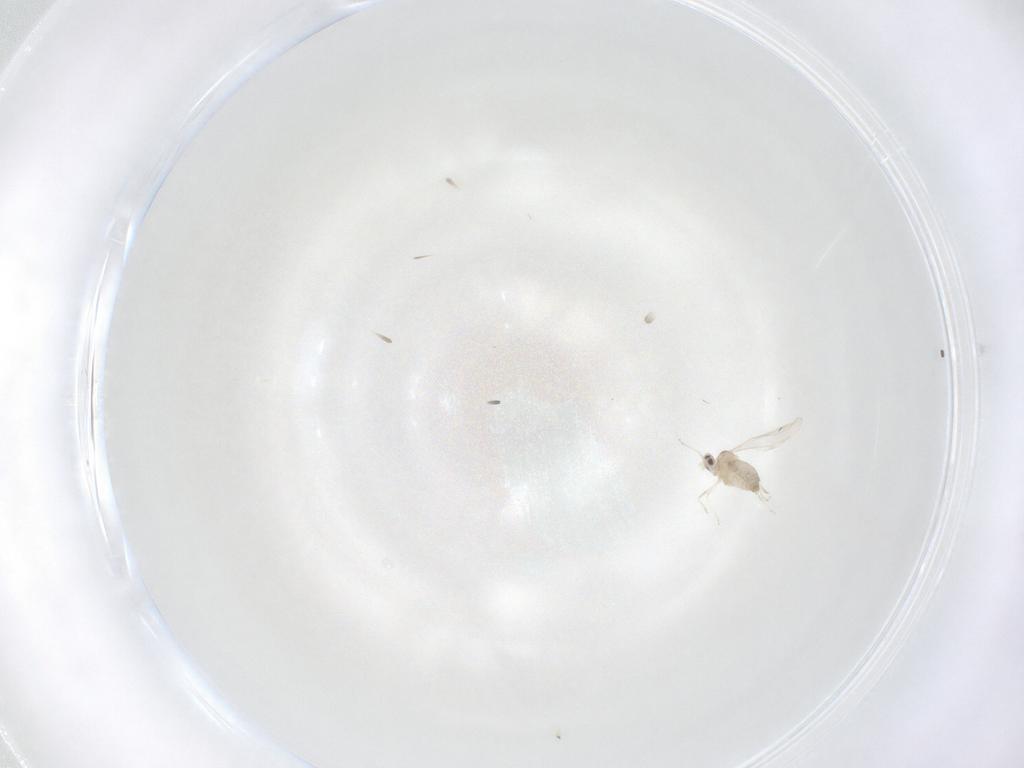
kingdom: Animalia
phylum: Arthropoda
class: Insecta
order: Diptera
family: Cecidomyiidae
